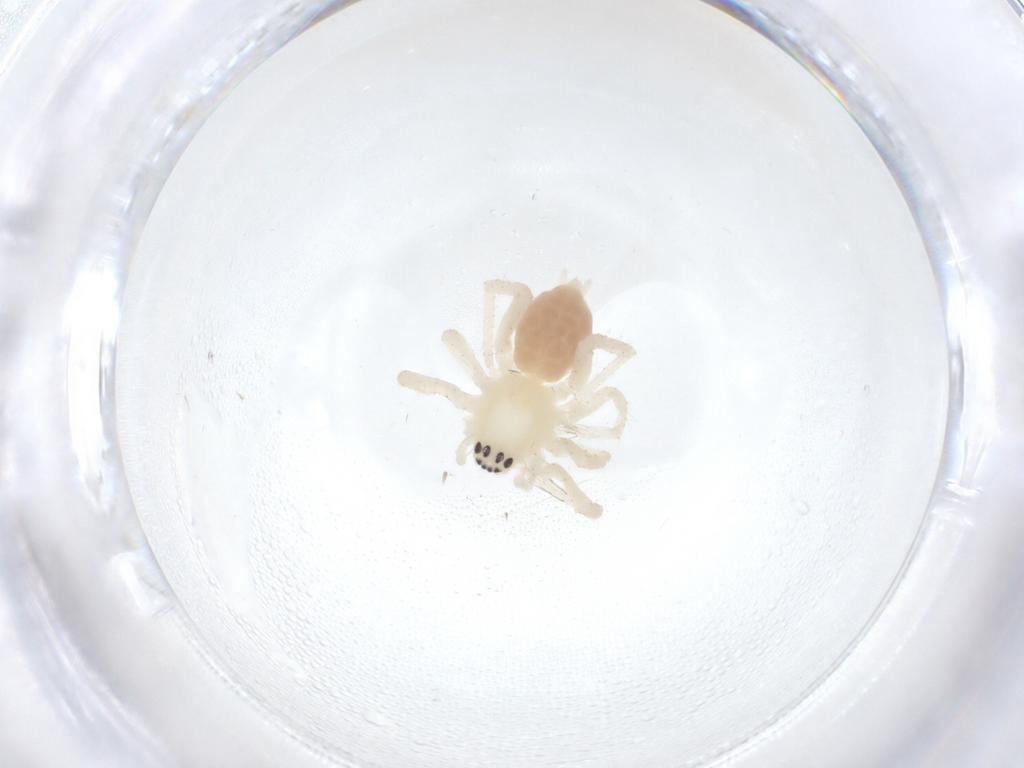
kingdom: Animalia
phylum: Arthropoda
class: Arachnida
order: Araneae
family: Anyphaenidae
